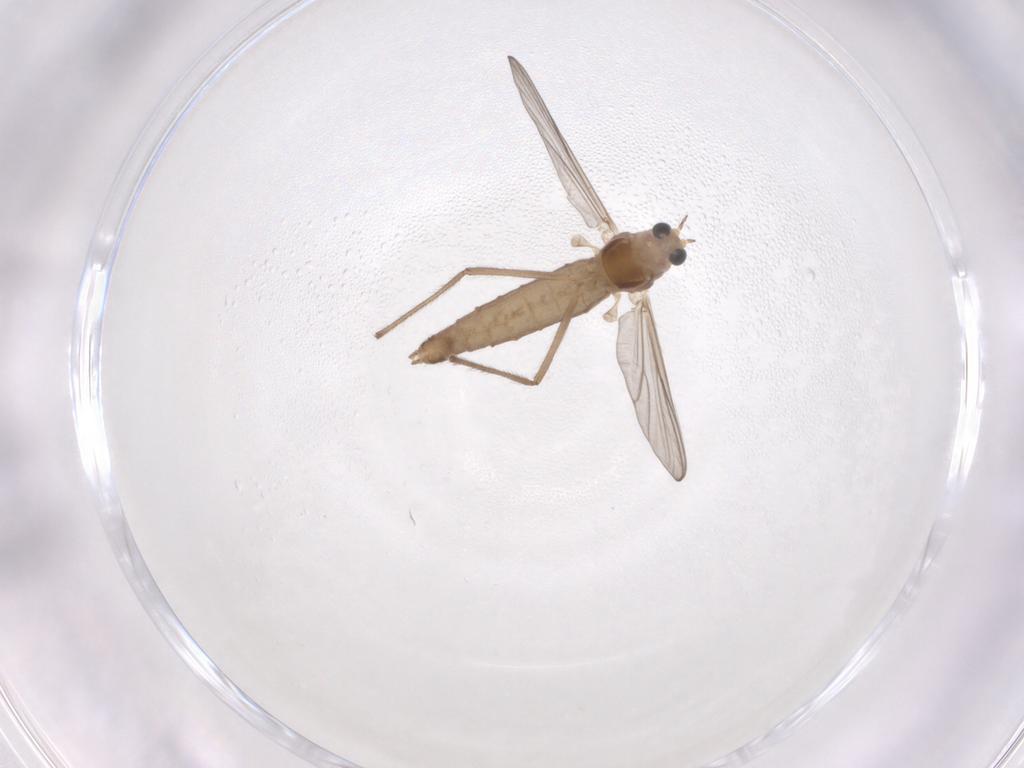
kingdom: Animalia
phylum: Arthropoda
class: Insecta
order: Diptera
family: Chironomidae
